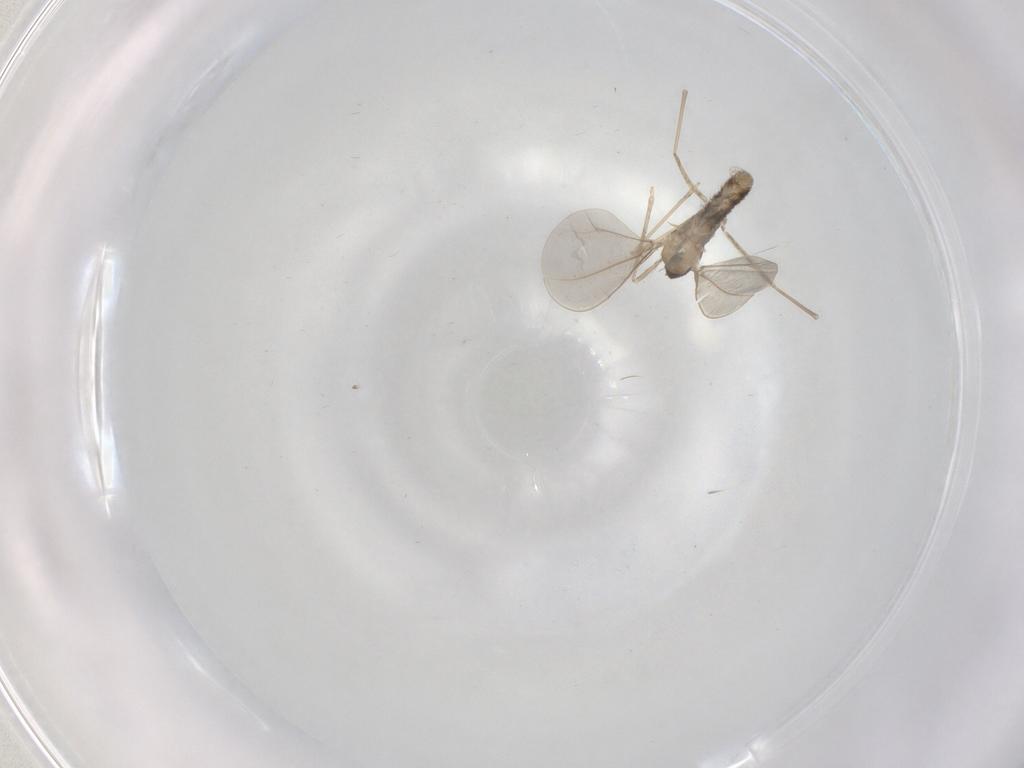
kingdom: Animalia
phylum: Arthropoda
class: Insecta
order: Diptera
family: Cecidomyiidae
